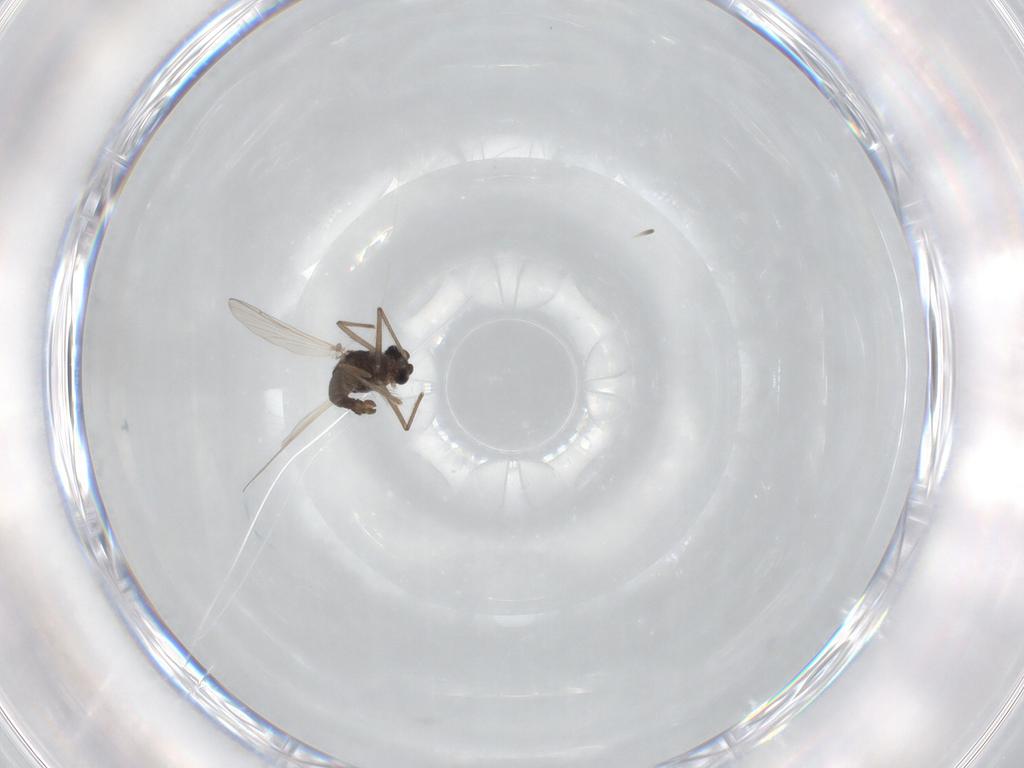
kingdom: Animalia
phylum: Arthropoda
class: Insecta
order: Diptera
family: Chironomidae
